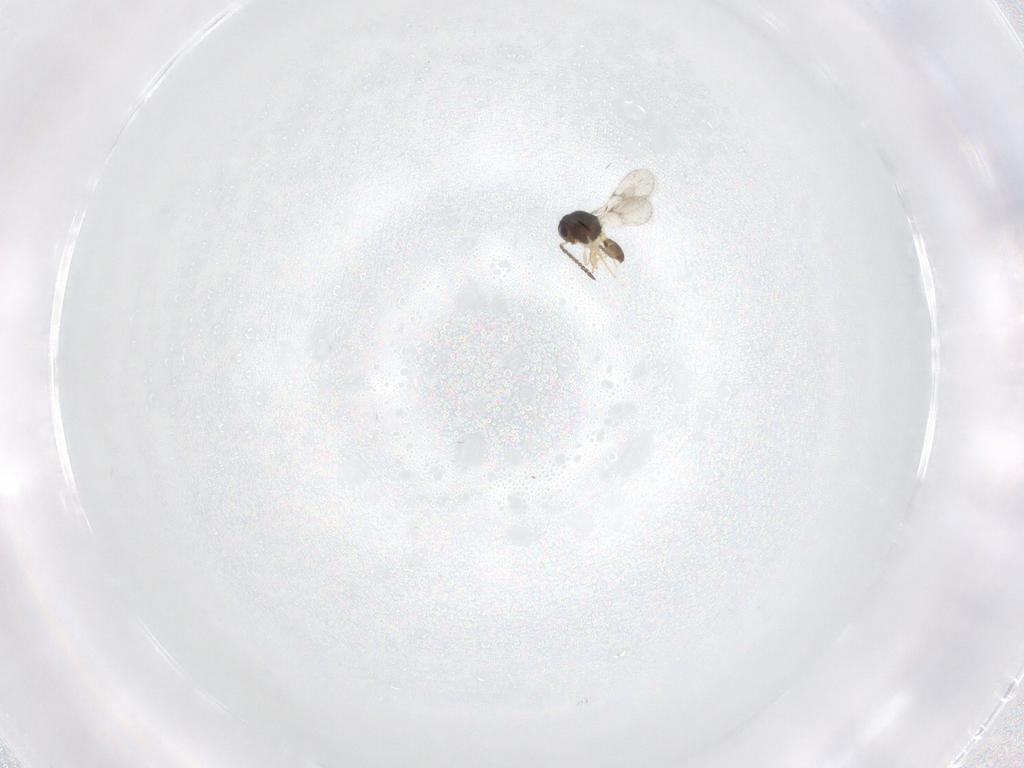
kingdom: Animalia
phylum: Arthropoda
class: Insecta
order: Hymenoptera
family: Scelionidae
